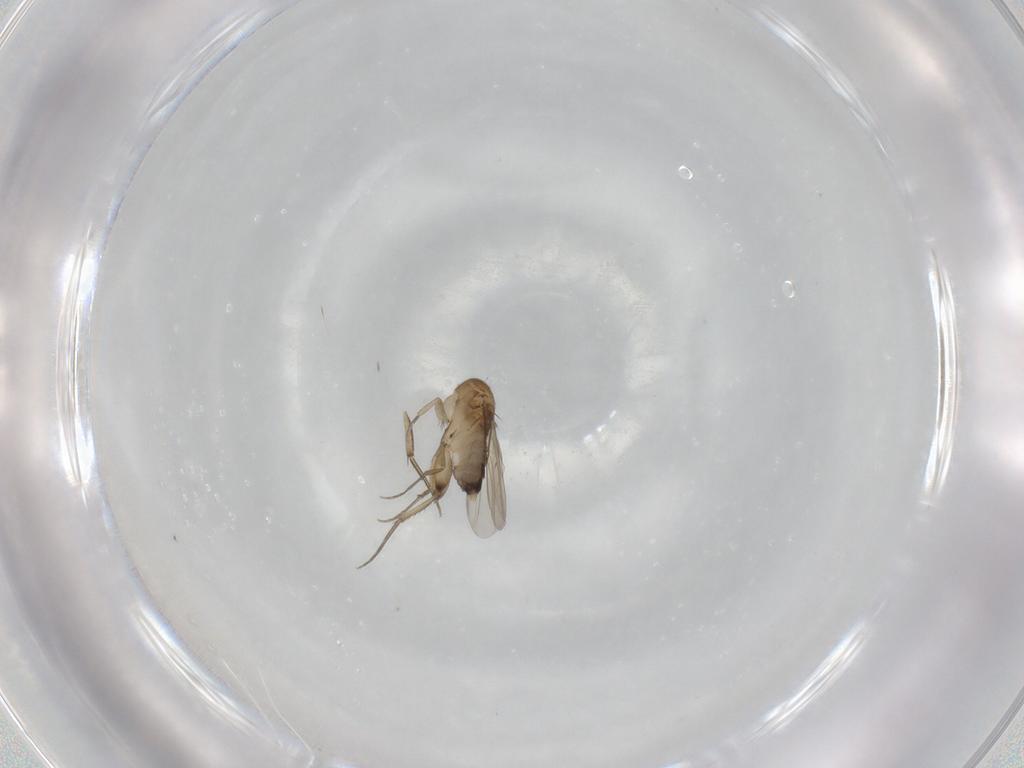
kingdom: Animalia
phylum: Arthropoda
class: Insecta
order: Diptera
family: Phoridae
